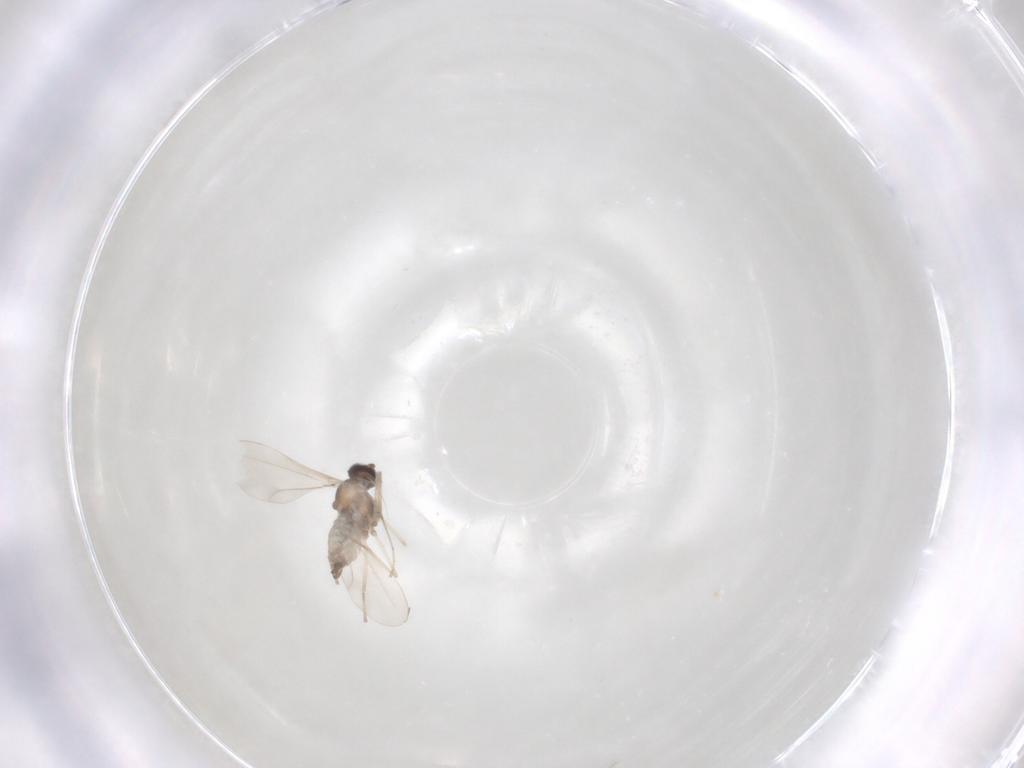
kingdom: Animalia
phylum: Arthropoda
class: Insecta
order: Diptera
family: Cecidomyiidae
